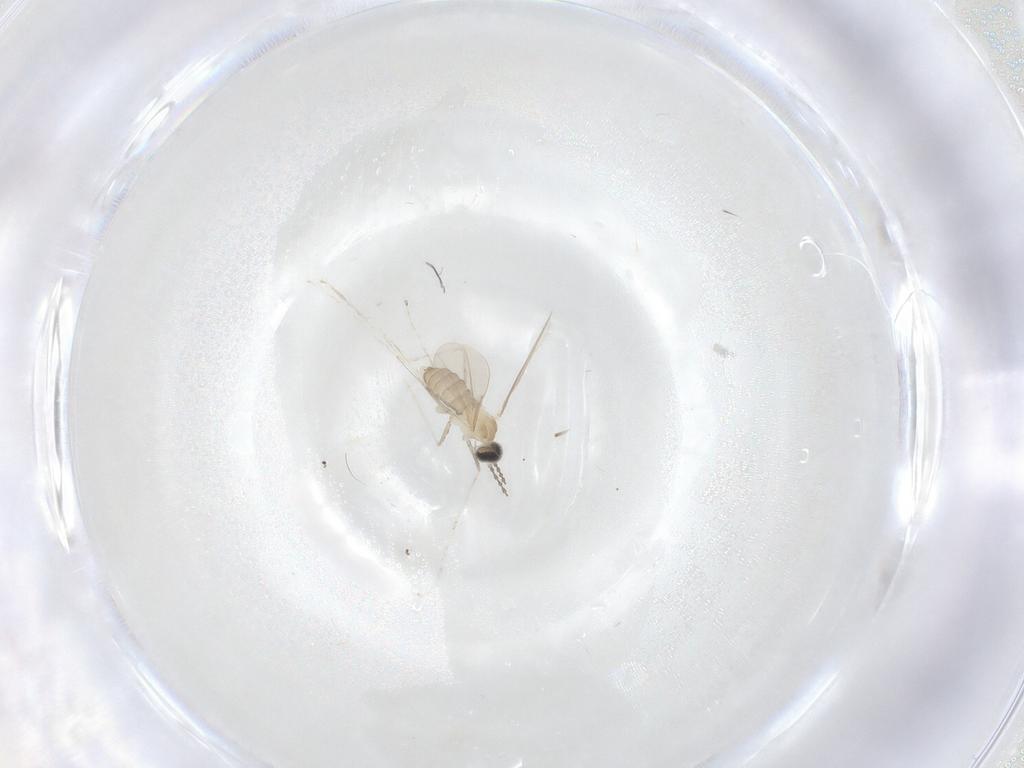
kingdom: Animalia
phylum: Arthropoda
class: Insecta
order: Diptera
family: Cecidomyiidae
